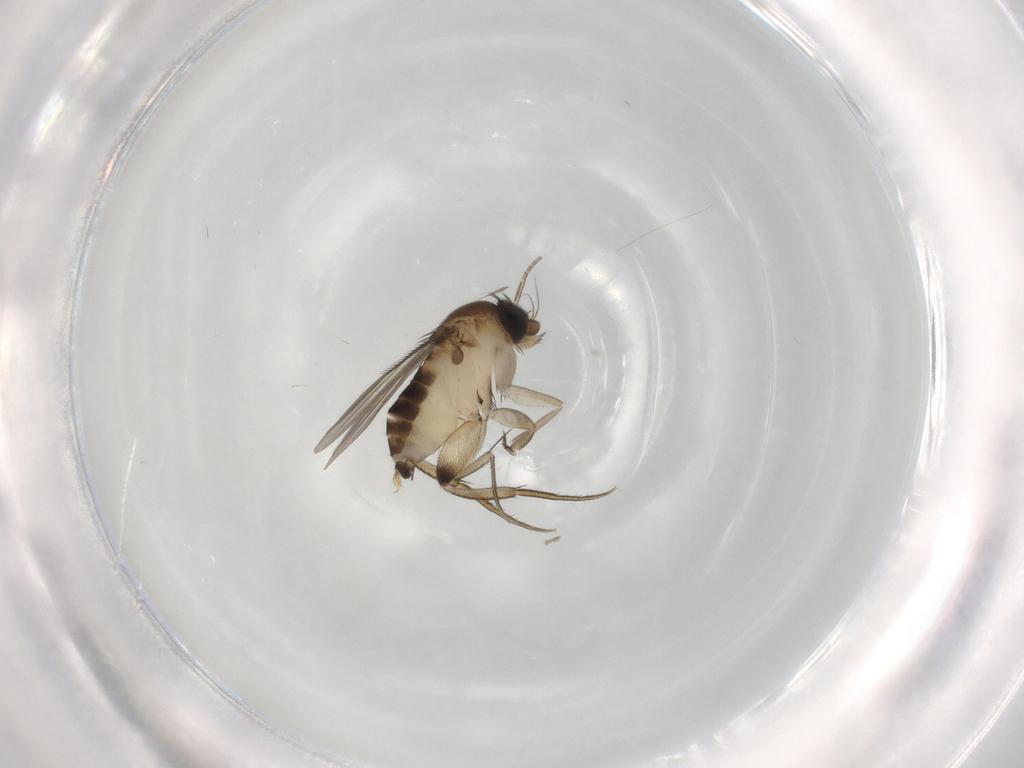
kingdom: Animalia
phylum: Arthropoda
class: Insecta
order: Diptera
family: Phoridae
